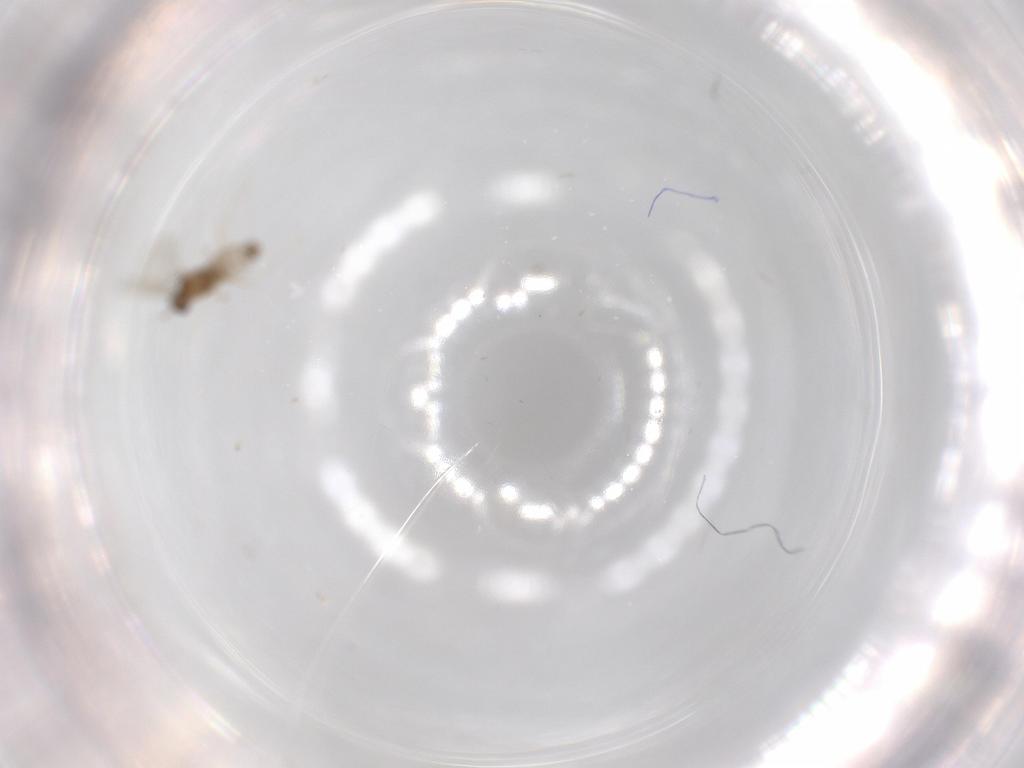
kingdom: Animalia
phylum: Arthropoda
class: Insecta
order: Diptera
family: Cecidomyiidae
